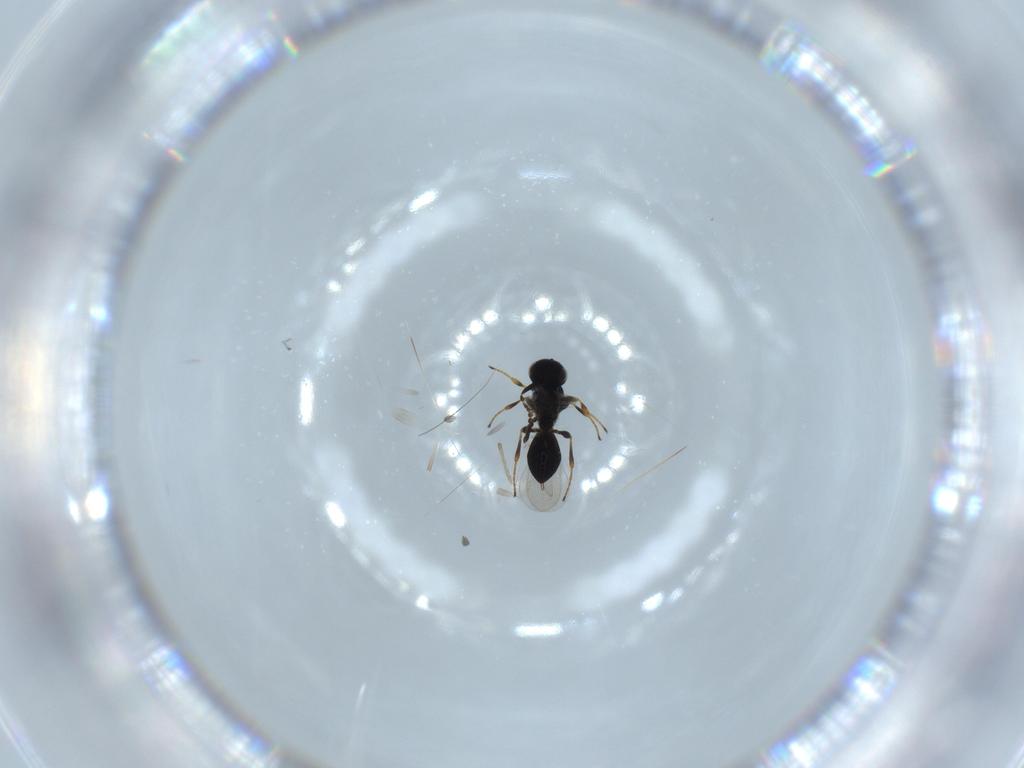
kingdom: Animalia
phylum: Arthropoda
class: Insecta
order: Hymenoptera
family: Platygastridae
